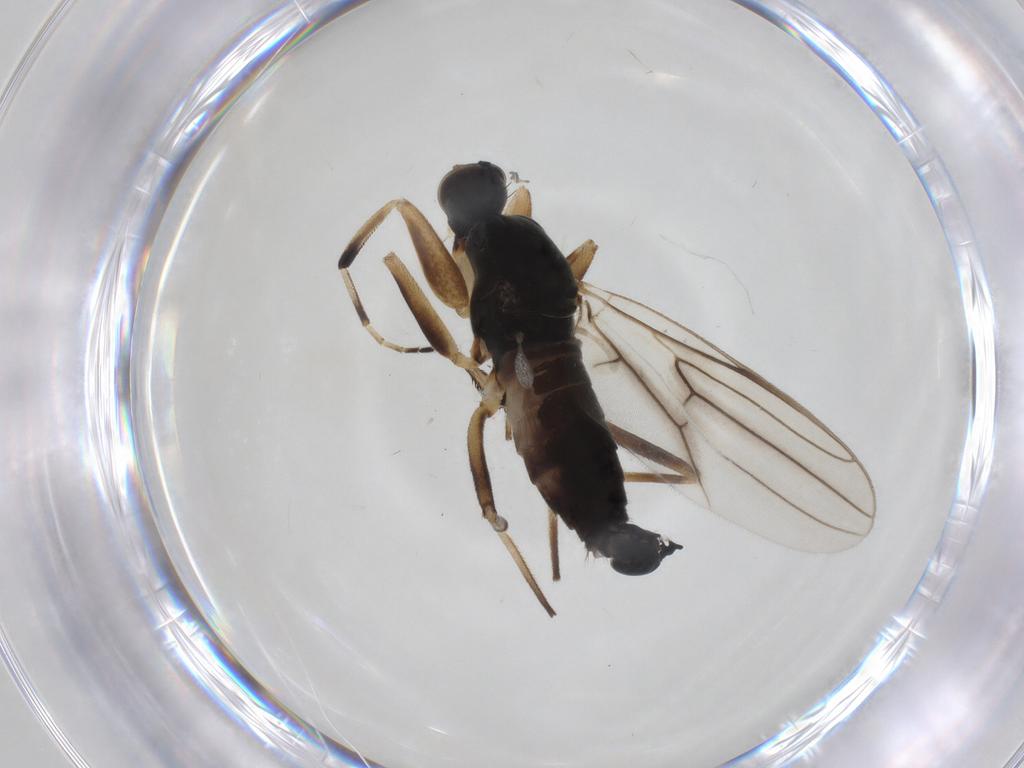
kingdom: Animalia
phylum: Arthropoda
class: Insecta
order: Diptera
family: Hybotidae
